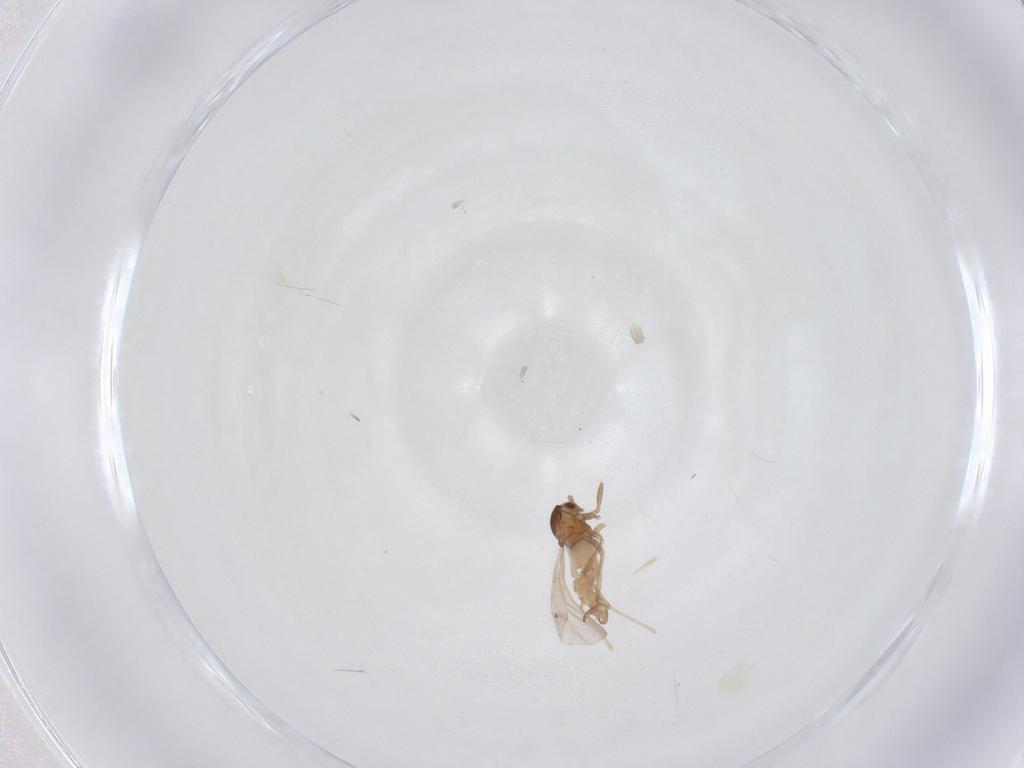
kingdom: Animalia
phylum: Arthropoda
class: Insecta
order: Diptera
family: Cecidomyiidae
